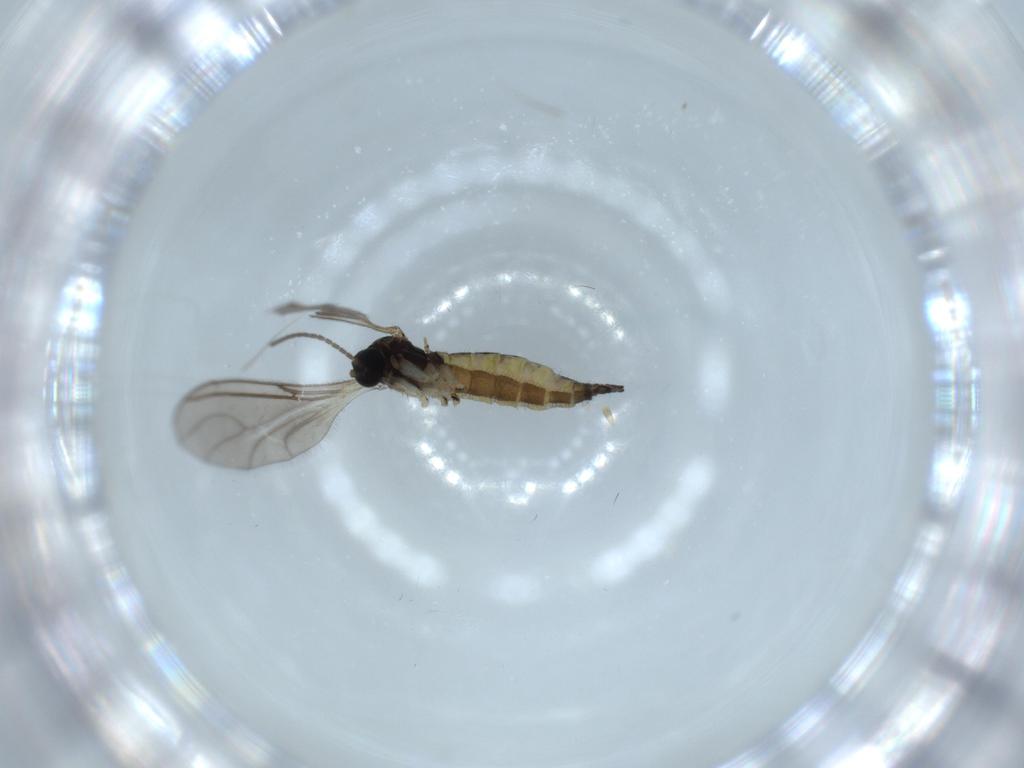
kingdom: Animalia
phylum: Arthropoda
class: Insecta
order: Diptera
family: Sciaridae
